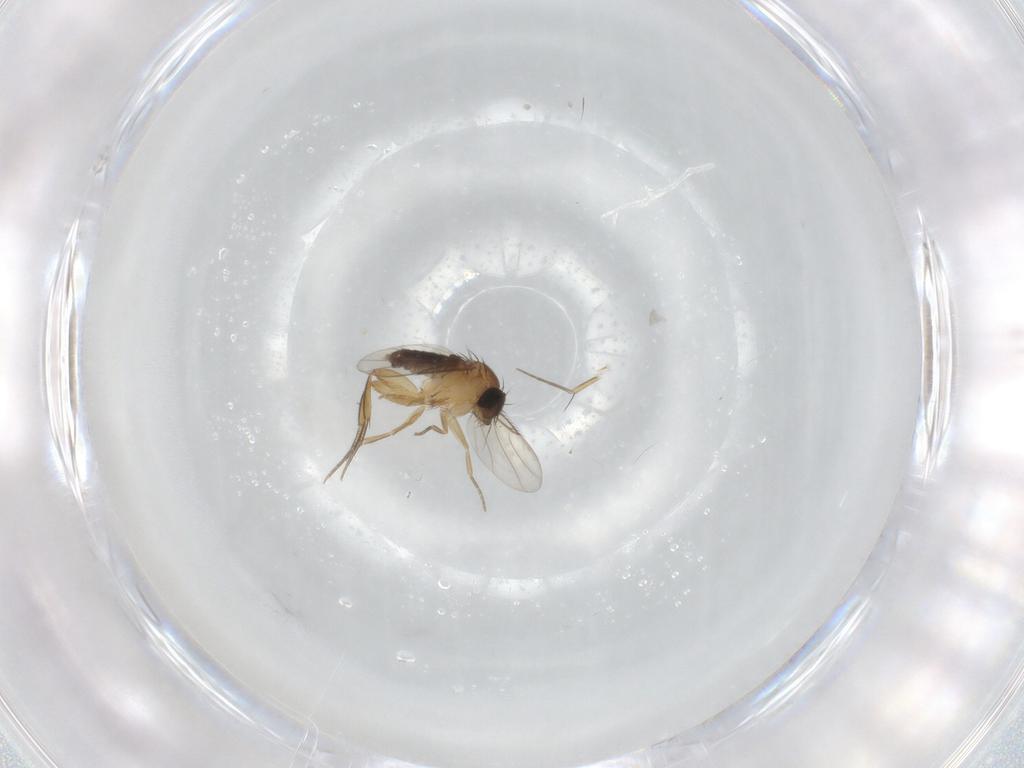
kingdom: Animalia
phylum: Arthropoda
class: Insecta
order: Diptera
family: Phoridae
